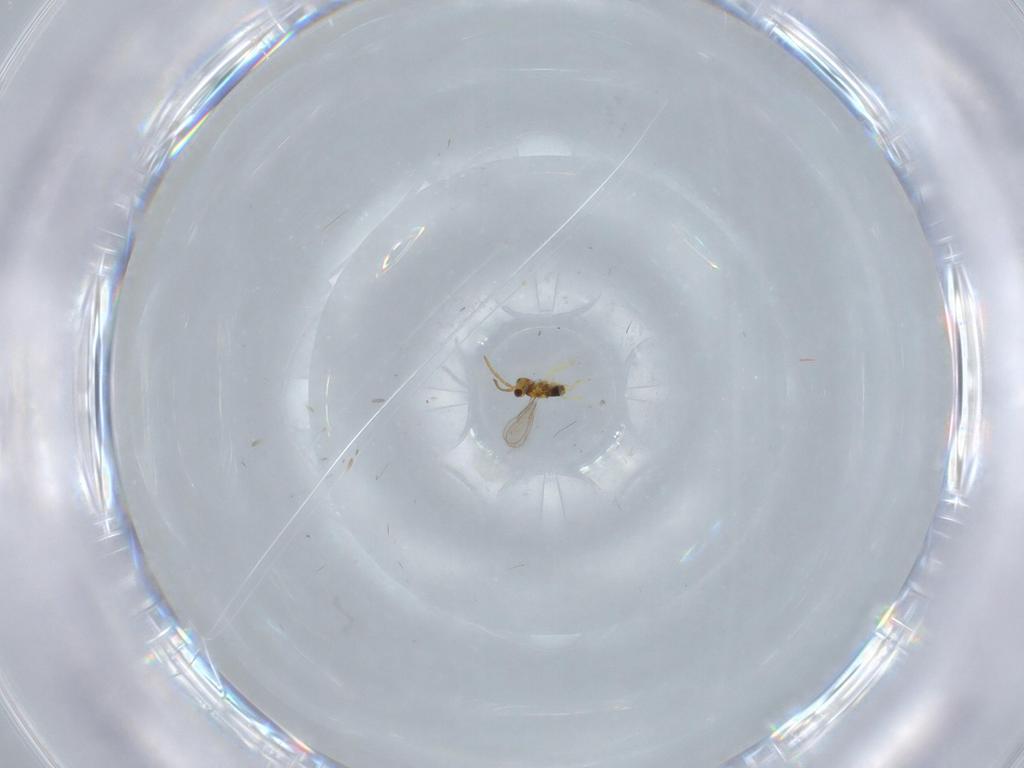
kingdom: Animalia
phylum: Arthropoda
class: Insecta
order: Hymenoptera
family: Aphelinidae
